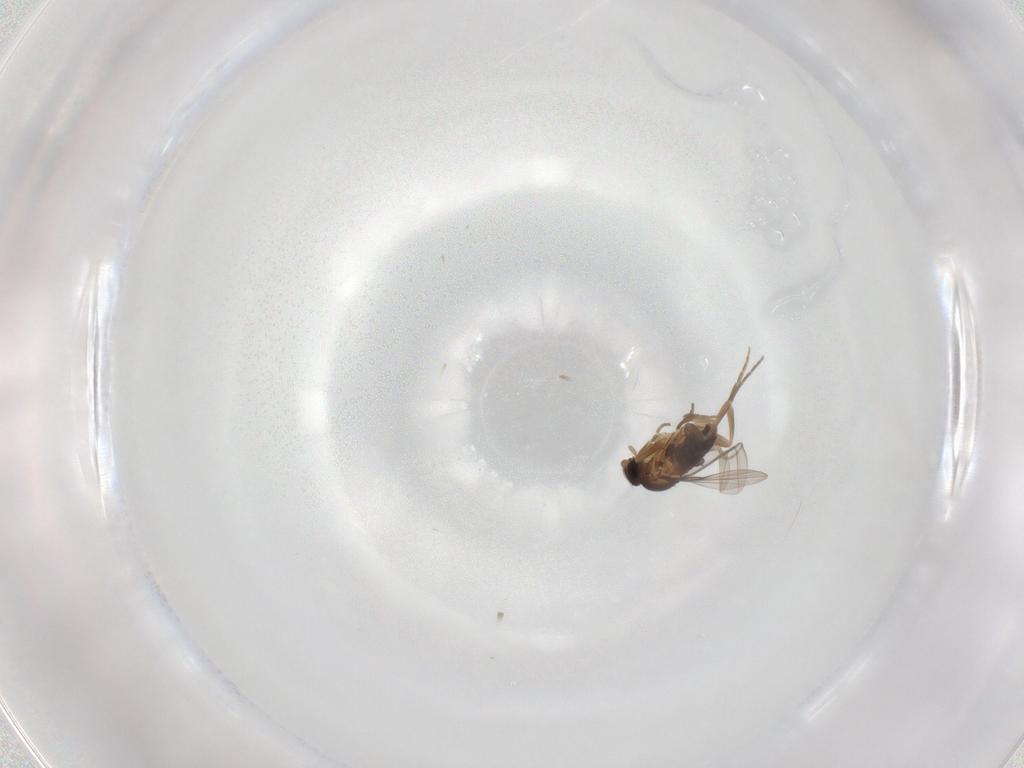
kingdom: Animalia
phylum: Arthropoda
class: Insecta
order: Diptera
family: Phoridae
